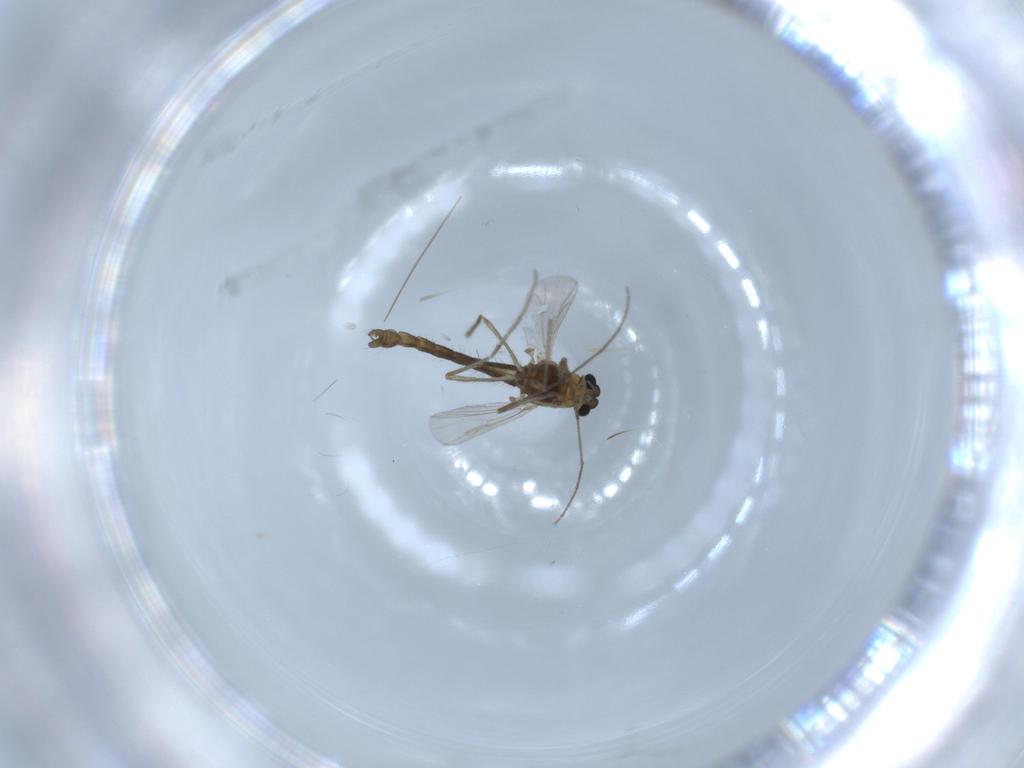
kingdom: Animalia
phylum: Arthropoda
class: Insecta
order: Diptera
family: Chironomidae
